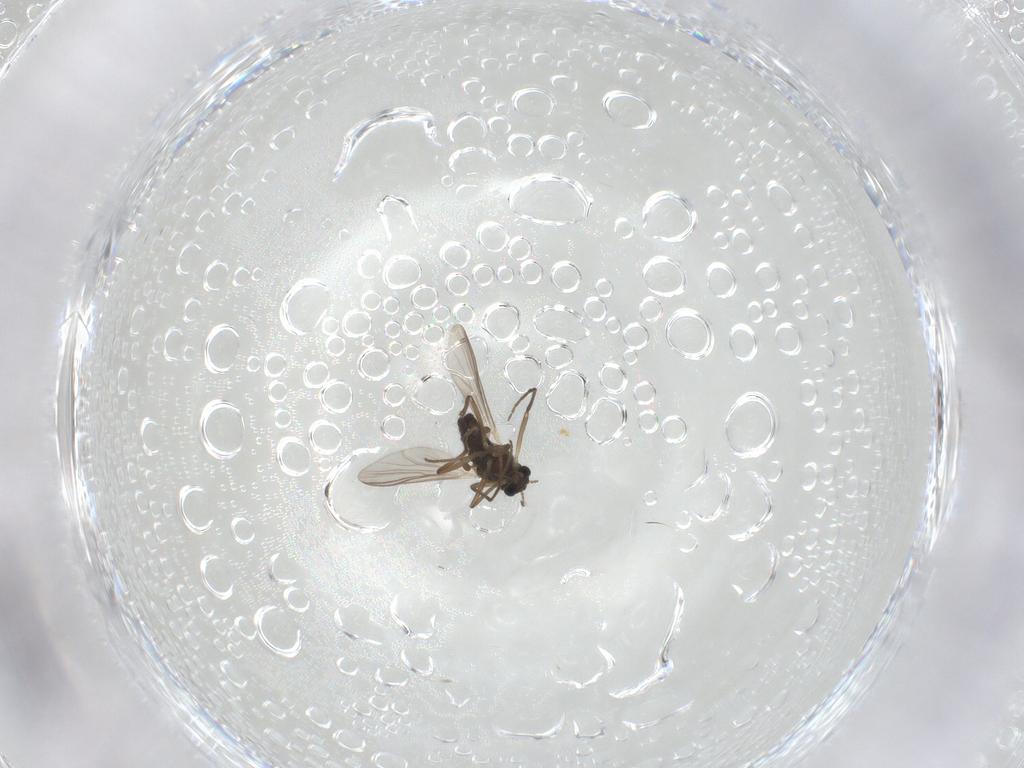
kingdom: Animalia
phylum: Arthropoda
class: Insecta
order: Diptera
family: Chironomidae
